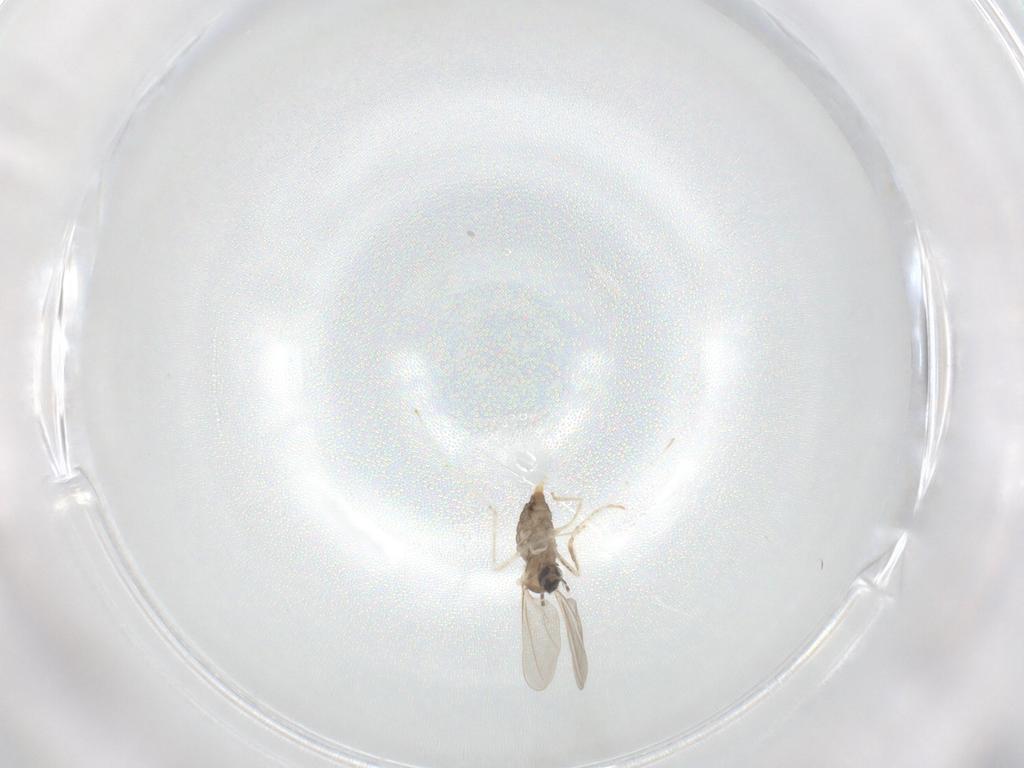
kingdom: Animalia
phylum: Arthropoda
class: Insecta
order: Diptera
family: Cecidomyiidae
